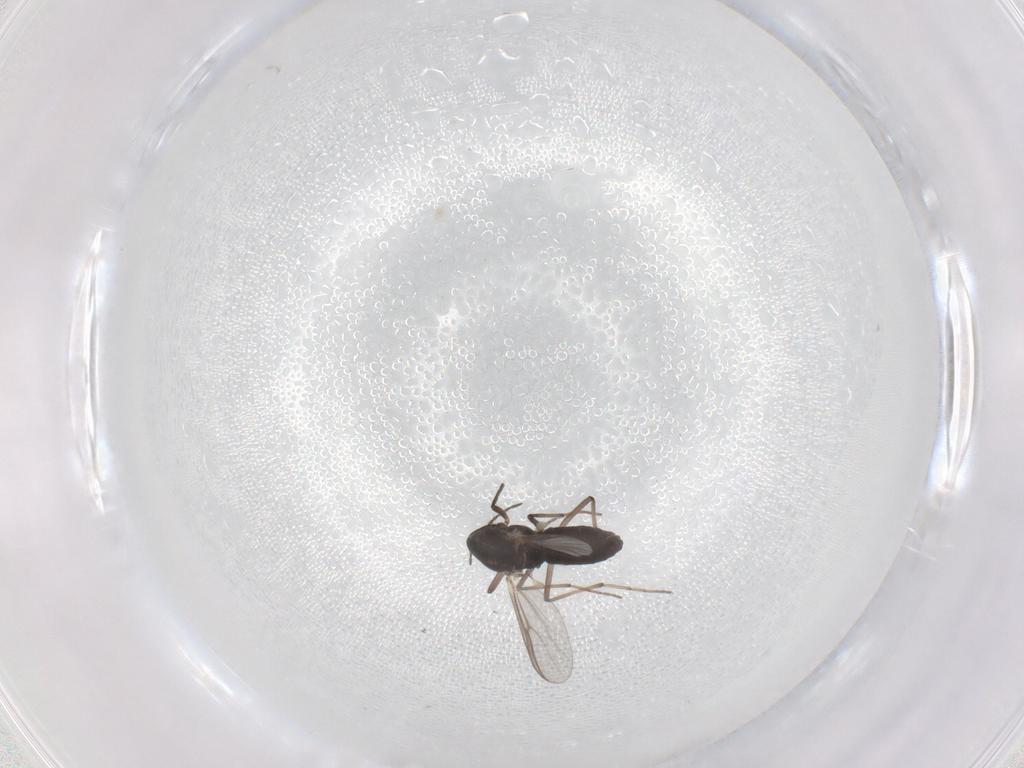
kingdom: Animalia
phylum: Arthropoda
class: Insecta
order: Diptera
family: Chironomidae
